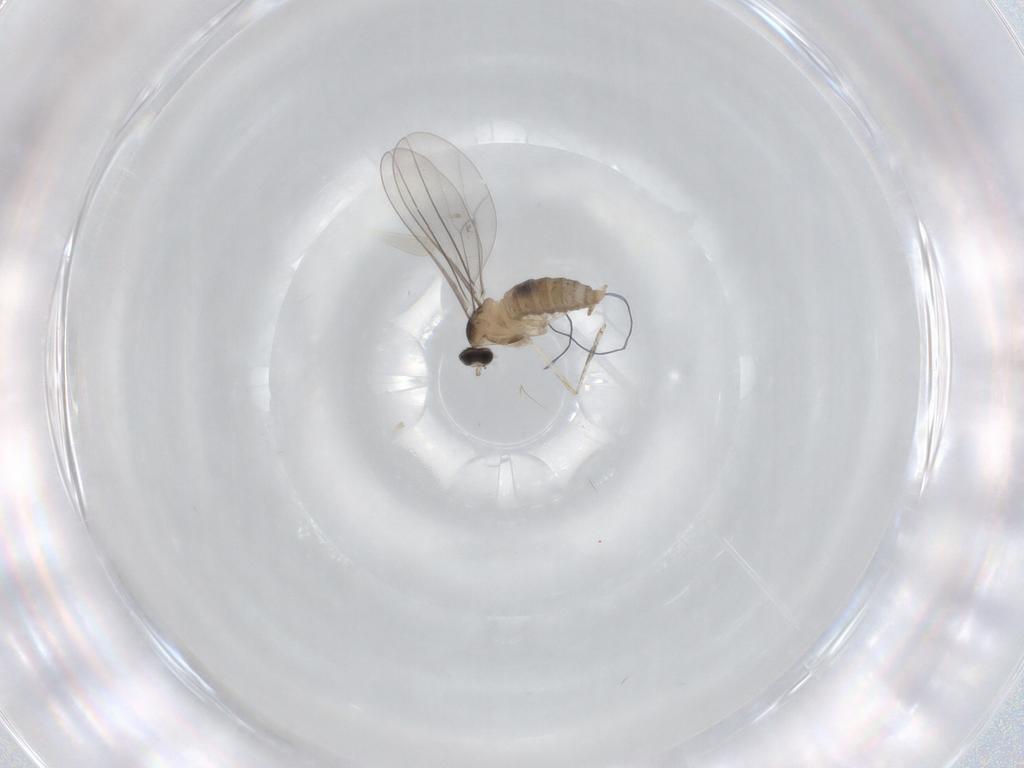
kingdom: Animalia
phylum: Arthropoda
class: Insecta
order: Diptera
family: Cecidomyiidae
